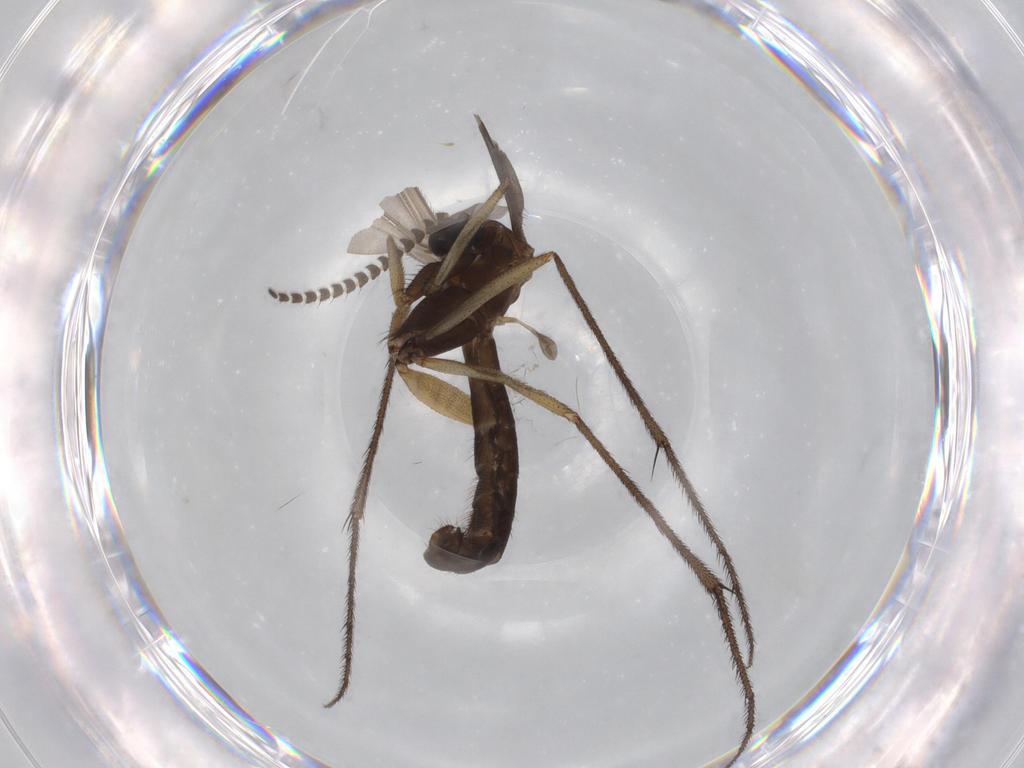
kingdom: Animalia
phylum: Arthropoda
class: Insecta
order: Diptera
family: Ditomyiidae
